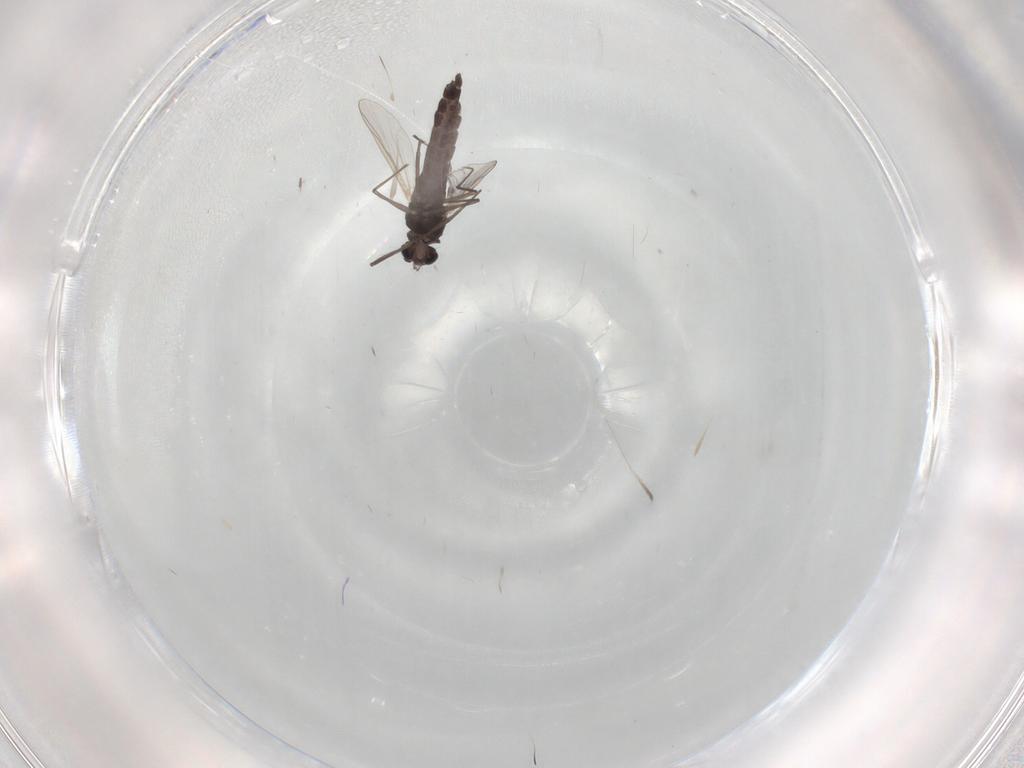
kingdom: Animalia
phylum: Arthropoda
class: Insecta
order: Diptera
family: Chironomidae
